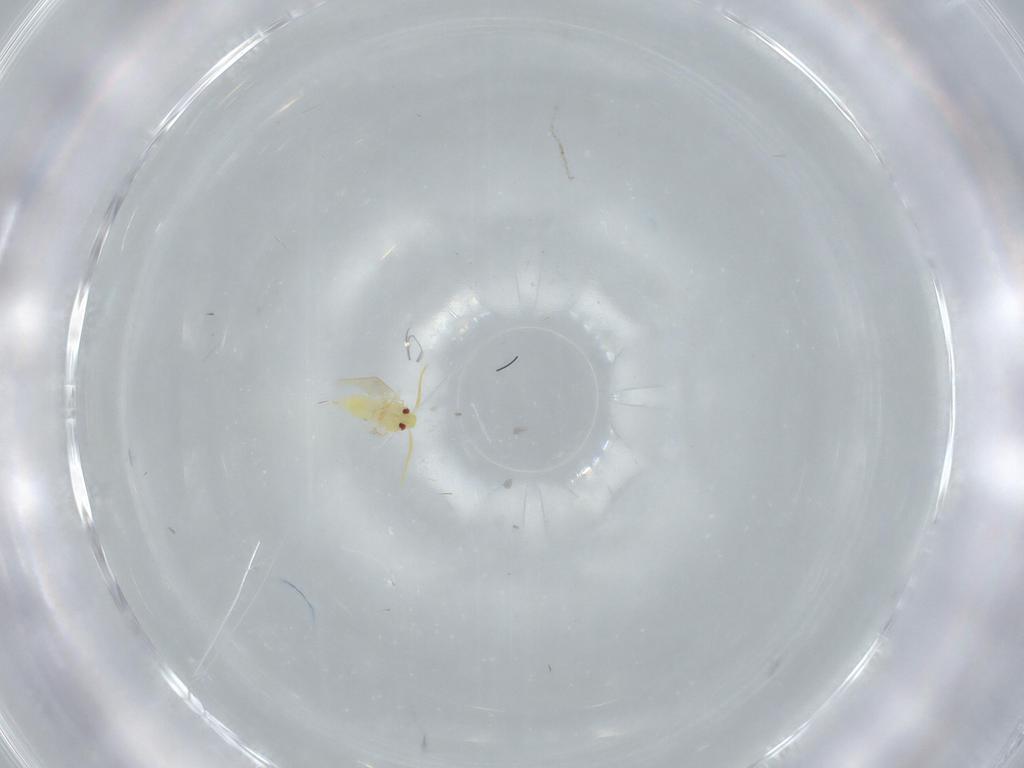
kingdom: Animalia
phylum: Arthropoda
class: Insecta
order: Hemiptera
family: Aleyrodidae
